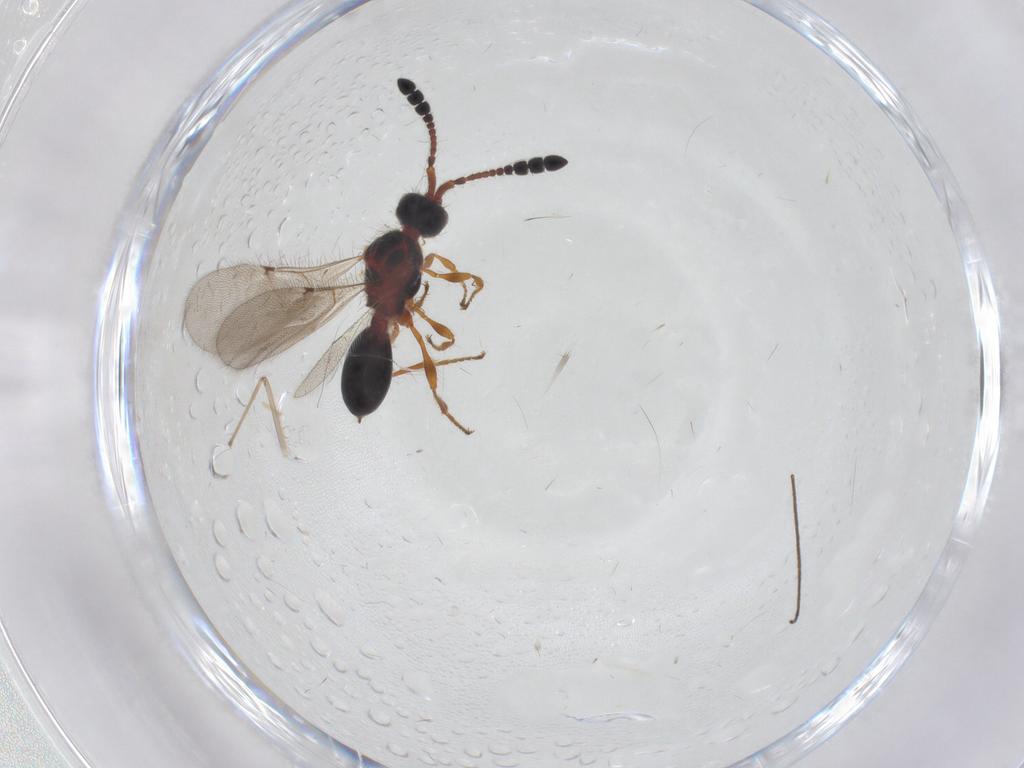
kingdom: Animalia
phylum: Arthropoda
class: Insecta
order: Hymenoptera
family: Diapriidae
